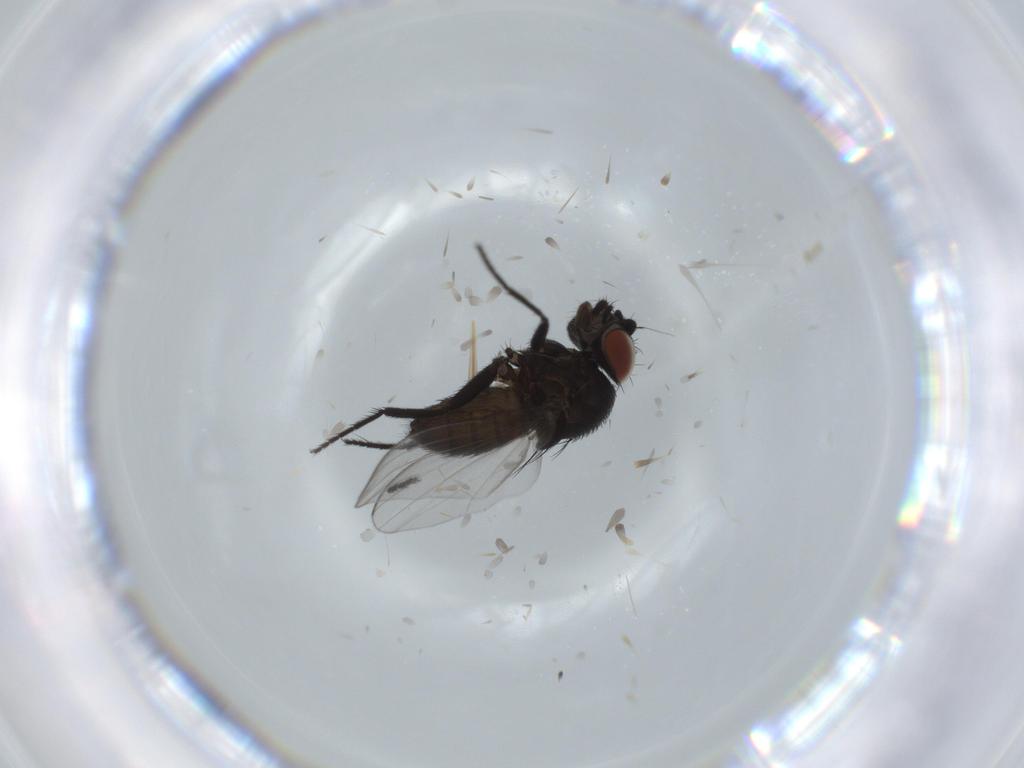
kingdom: Animalia
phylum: Arthropoda
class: Insecta
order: Diptera
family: Milichiidae
